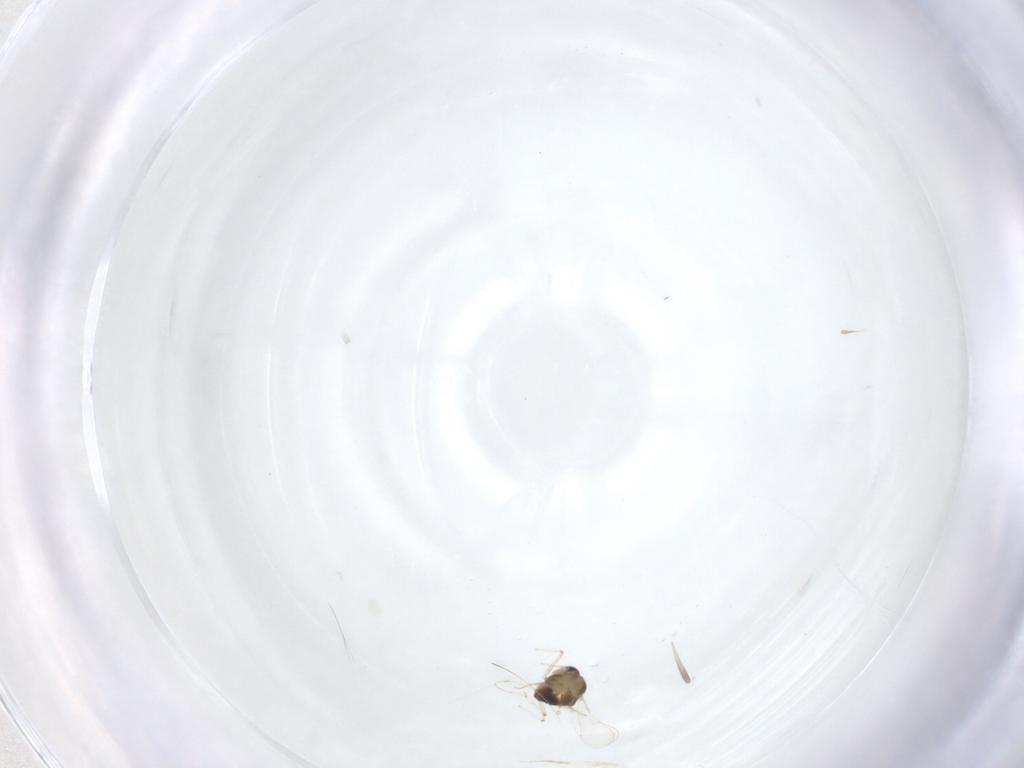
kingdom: Animalia
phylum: Arthropoda
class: Insecta
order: Diptera
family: Chironomidae
